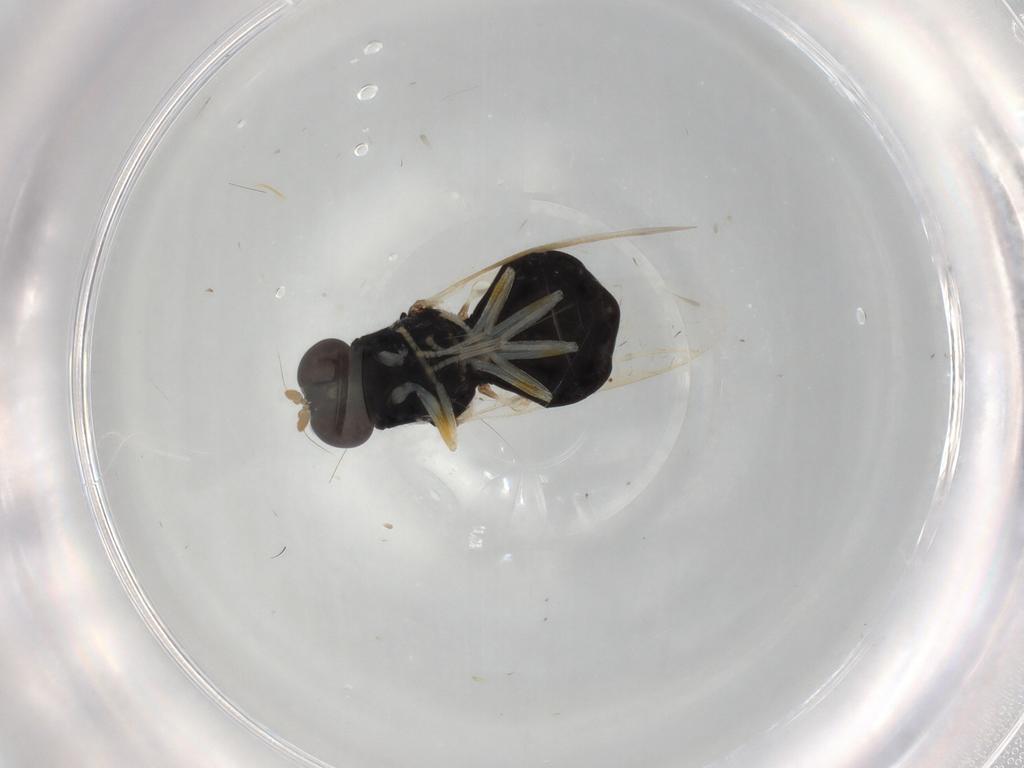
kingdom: Animalia
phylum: Arthropoda
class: Insecta
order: Diptera
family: Stratiomyidae
